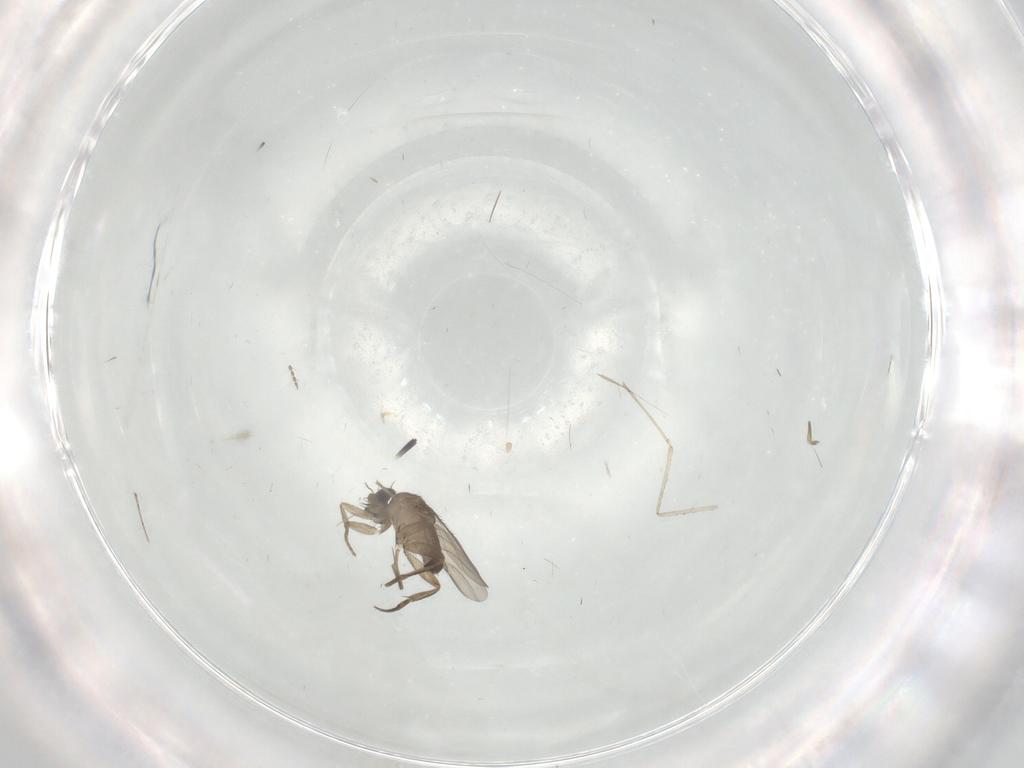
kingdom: Animalia
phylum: Arthropoda
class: Insecta
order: Diptera
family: Phoridae
